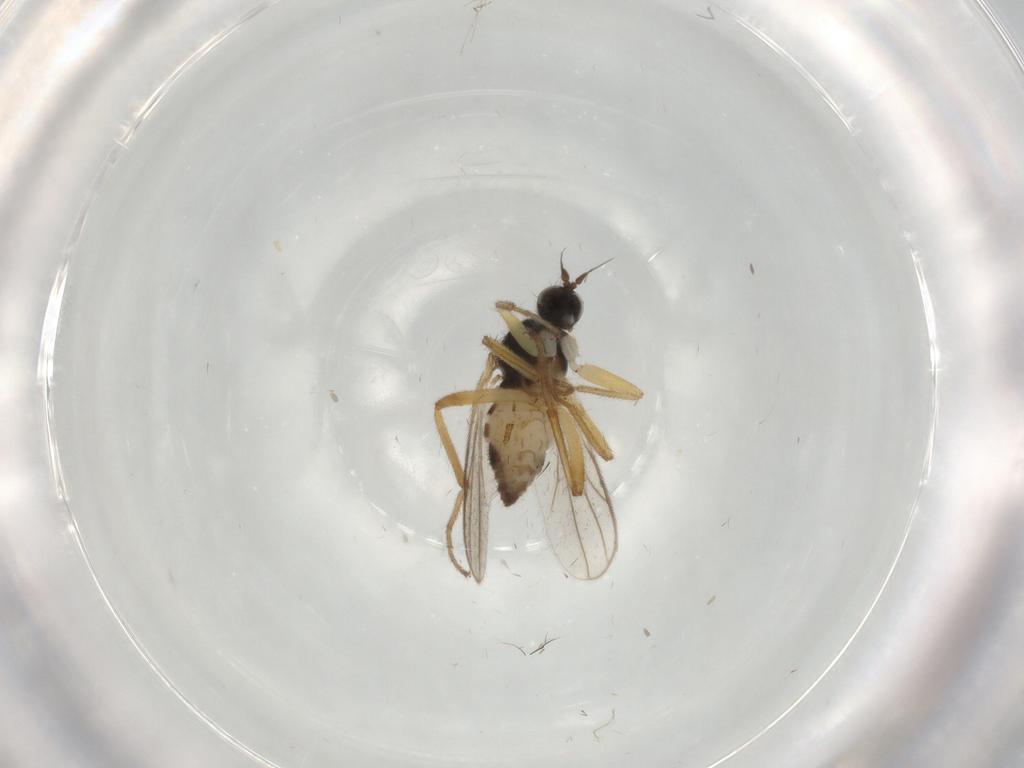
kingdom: Animalia
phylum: Arthropoda
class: Insecta
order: Diptera
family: Hybotidae
